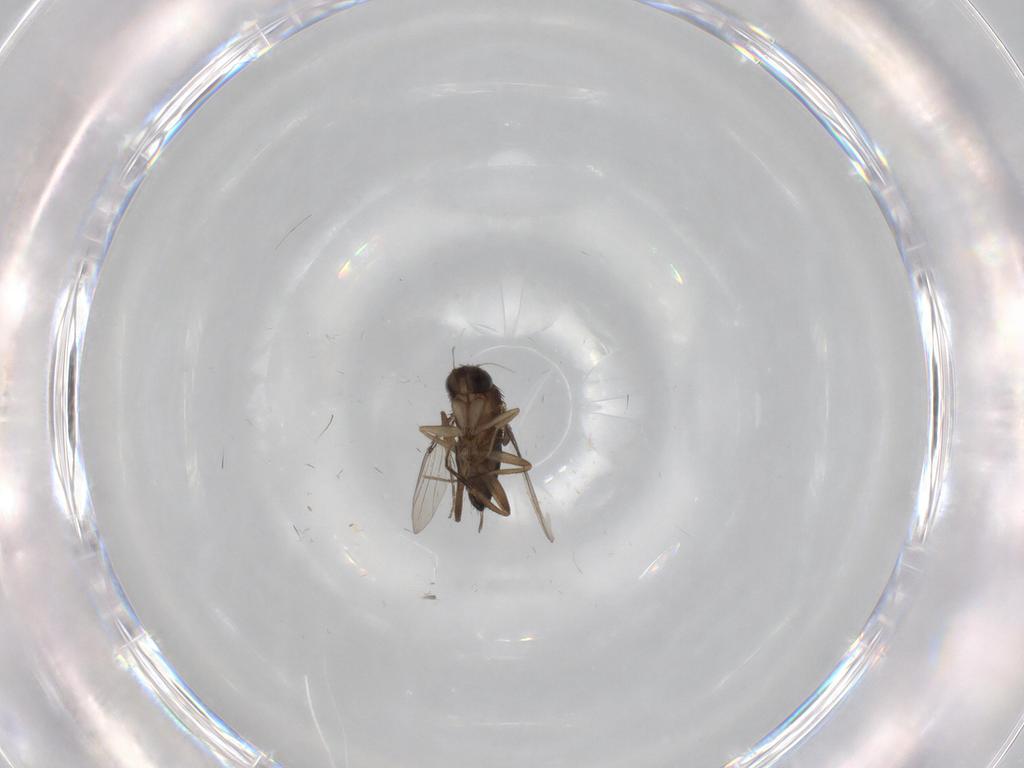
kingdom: Animalia
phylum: Arthropoda
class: Insecta
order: Diptera
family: Phoridae
